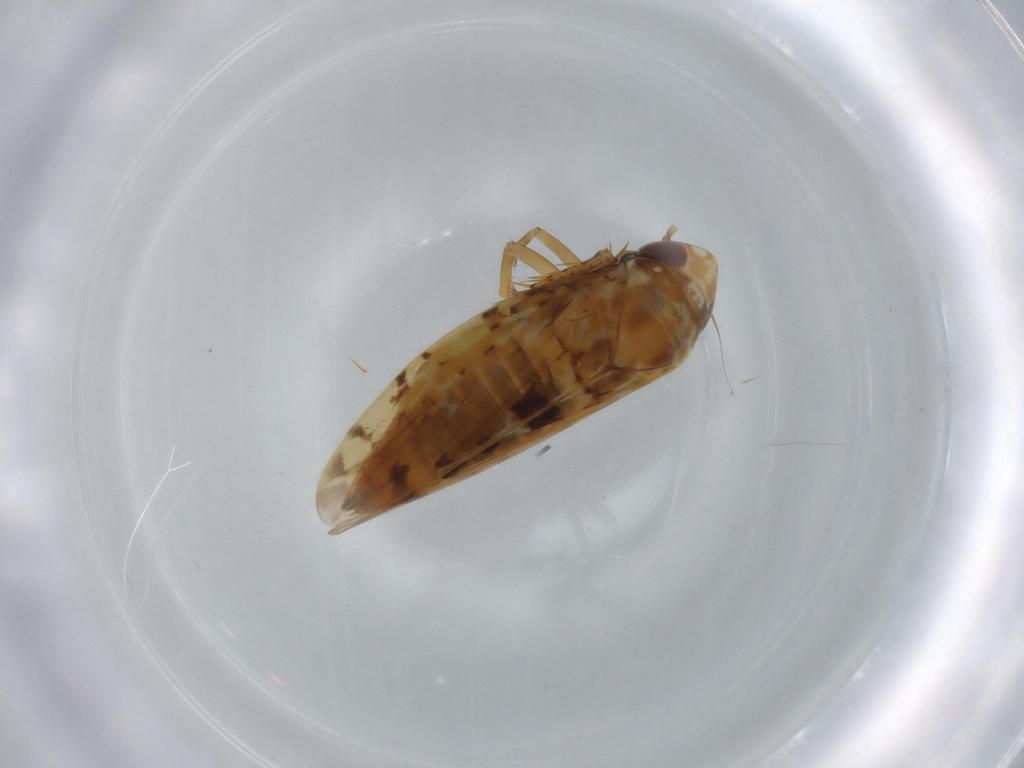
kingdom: Animalia
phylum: Arthropoda
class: Insecta
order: Hemiptera
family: Cicadellidae
